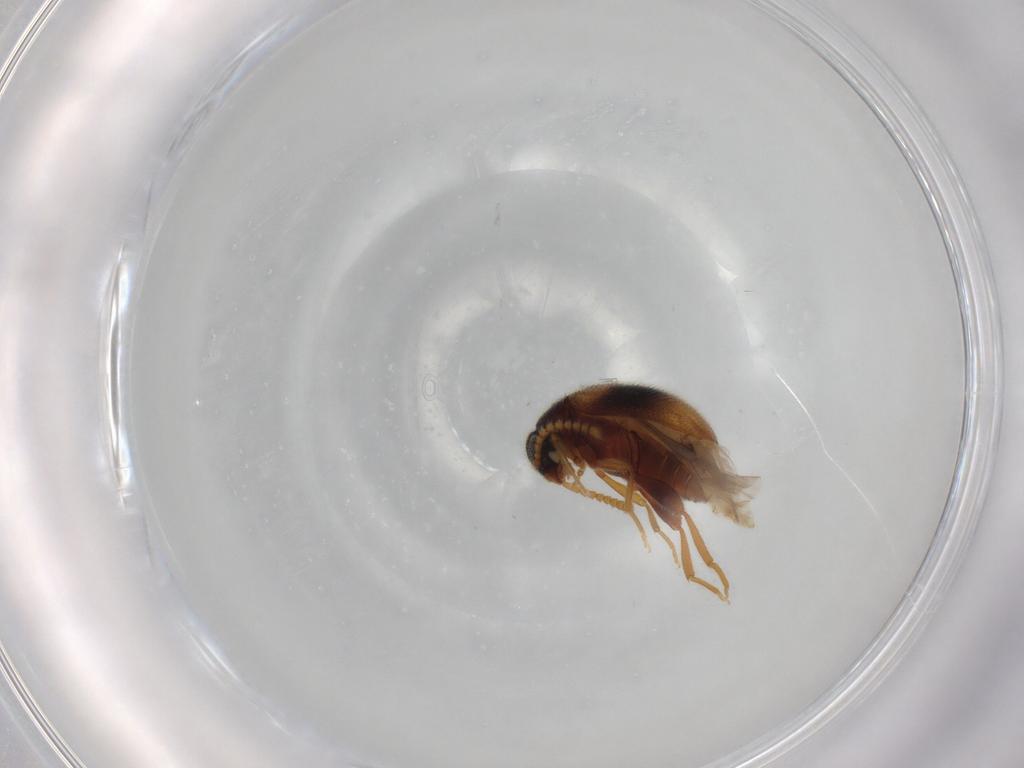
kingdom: Animalia
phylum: Arthropoda
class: Insecta
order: Coleoptera
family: Aderidae
